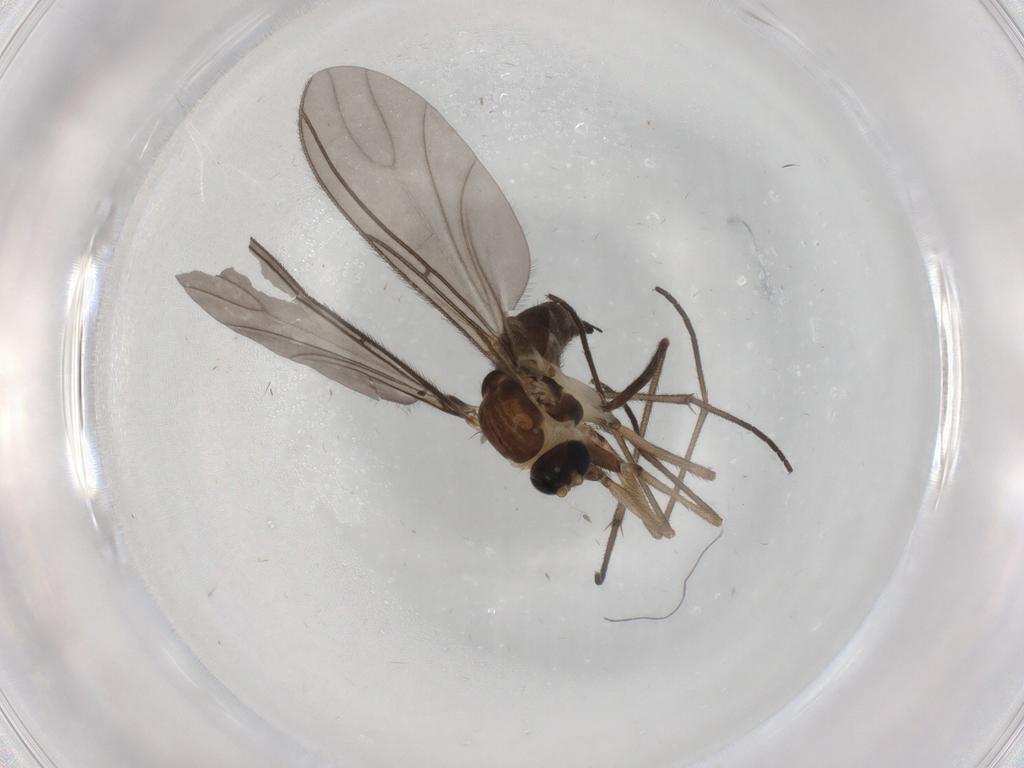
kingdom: Animalia
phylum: Arthropoda
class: Insecta
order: Diptera
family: Sciaridae
